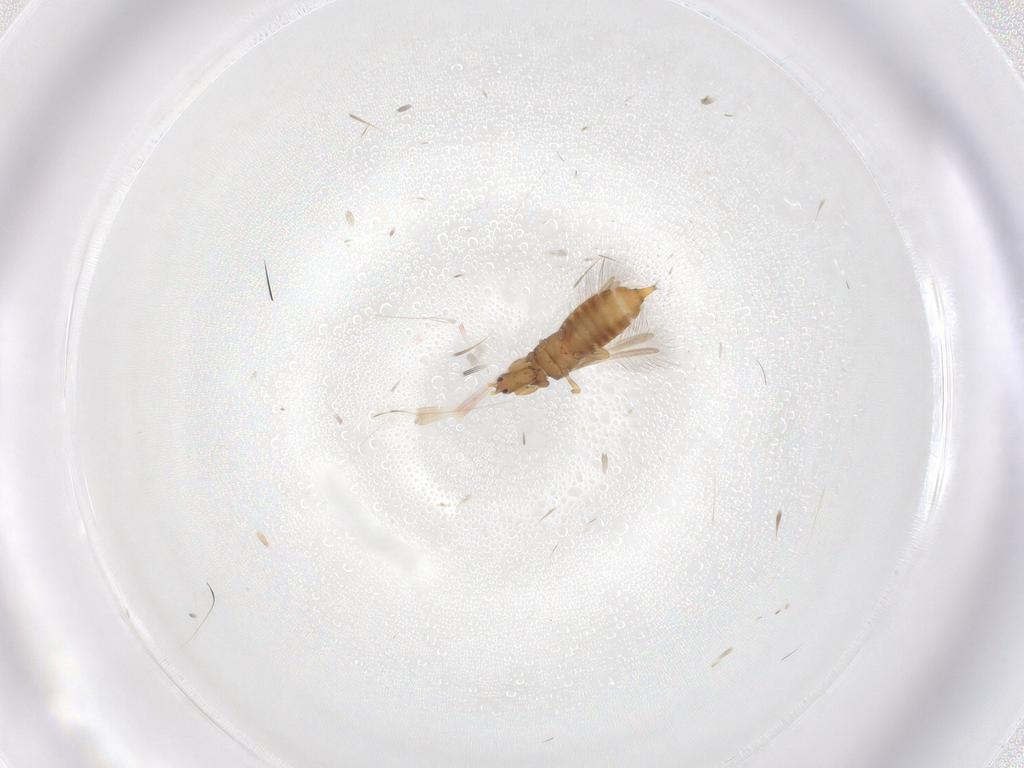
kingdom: Animalia
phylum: Arthropoda
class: Insecta
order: Thysanoptera
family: Phlaeothripidae
